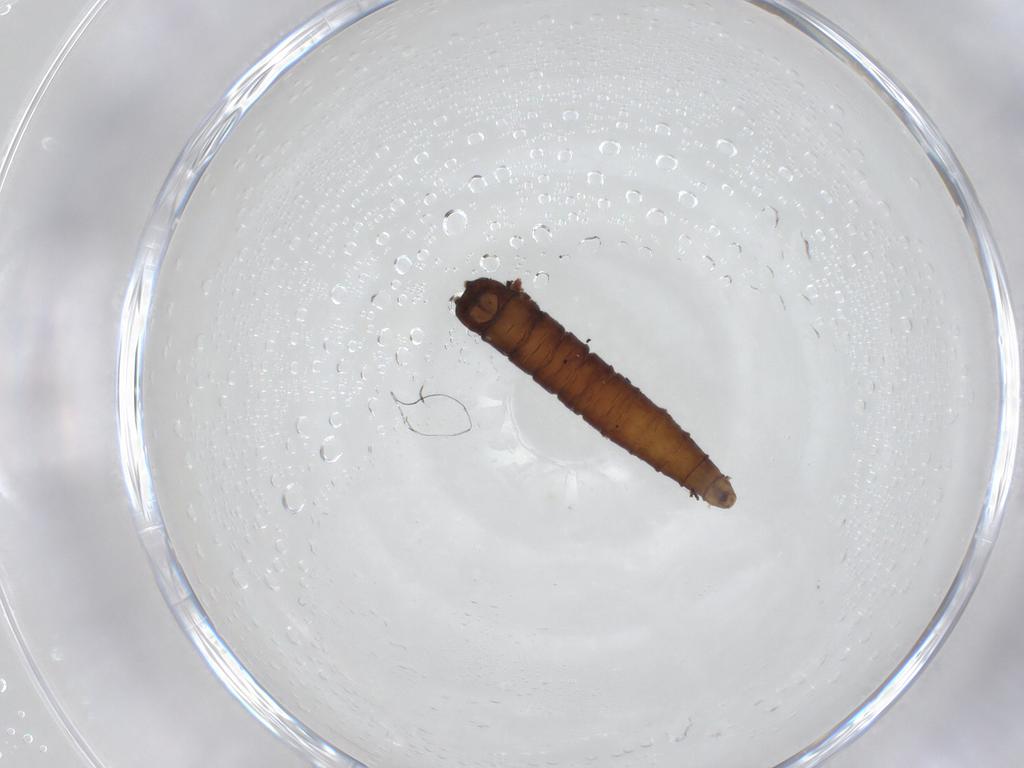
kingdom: Animalia
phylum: Arthropoda
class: Insecta
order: Diptera
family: Sphaeroceridae
